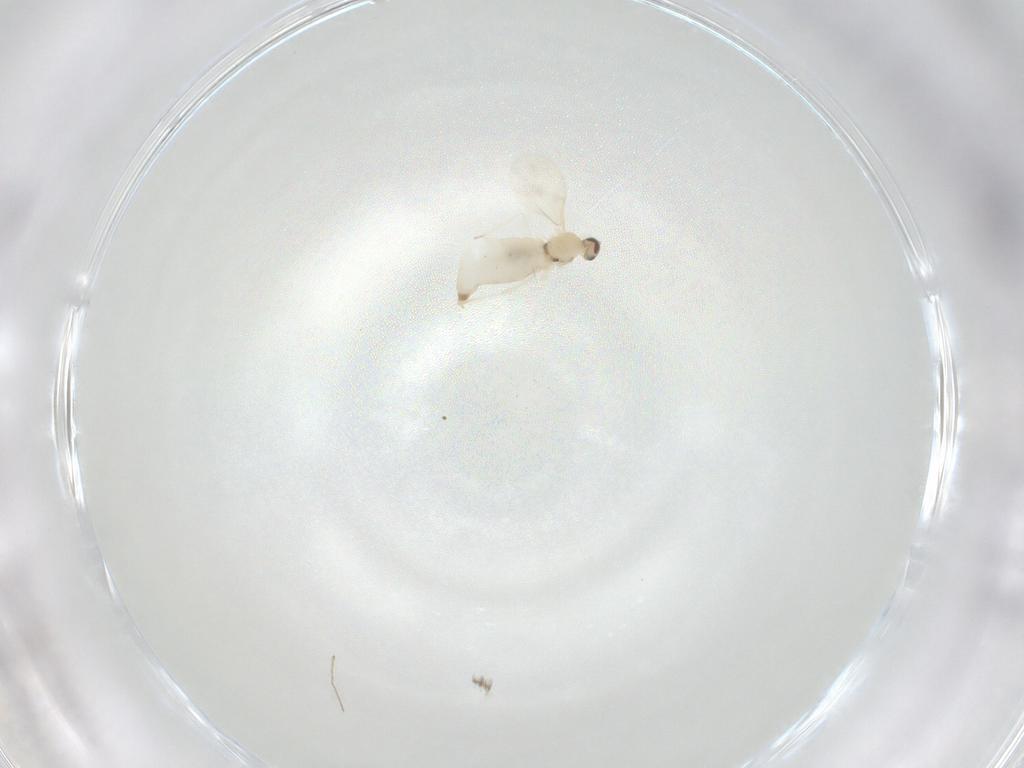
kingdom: Animalia
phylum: Arthropoda
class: Insecta
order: Diptera
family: Cecidomyiidae
